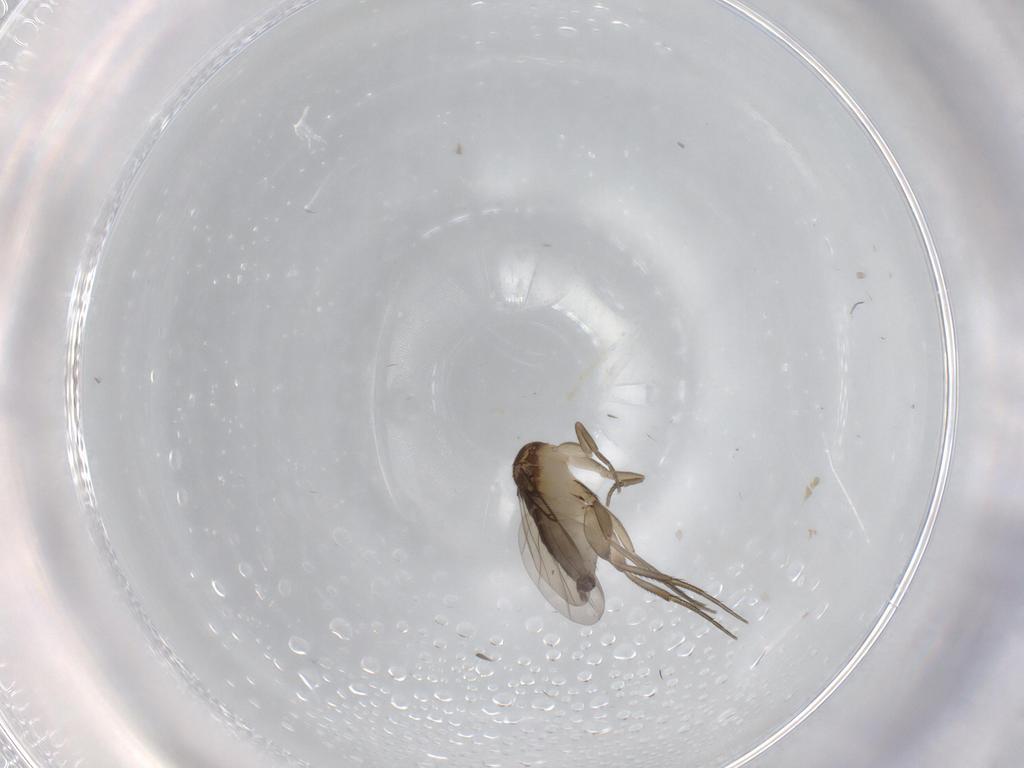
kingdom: Animalia
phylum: Arthropoda
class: Insecta
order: Diptera
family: Phoridae
